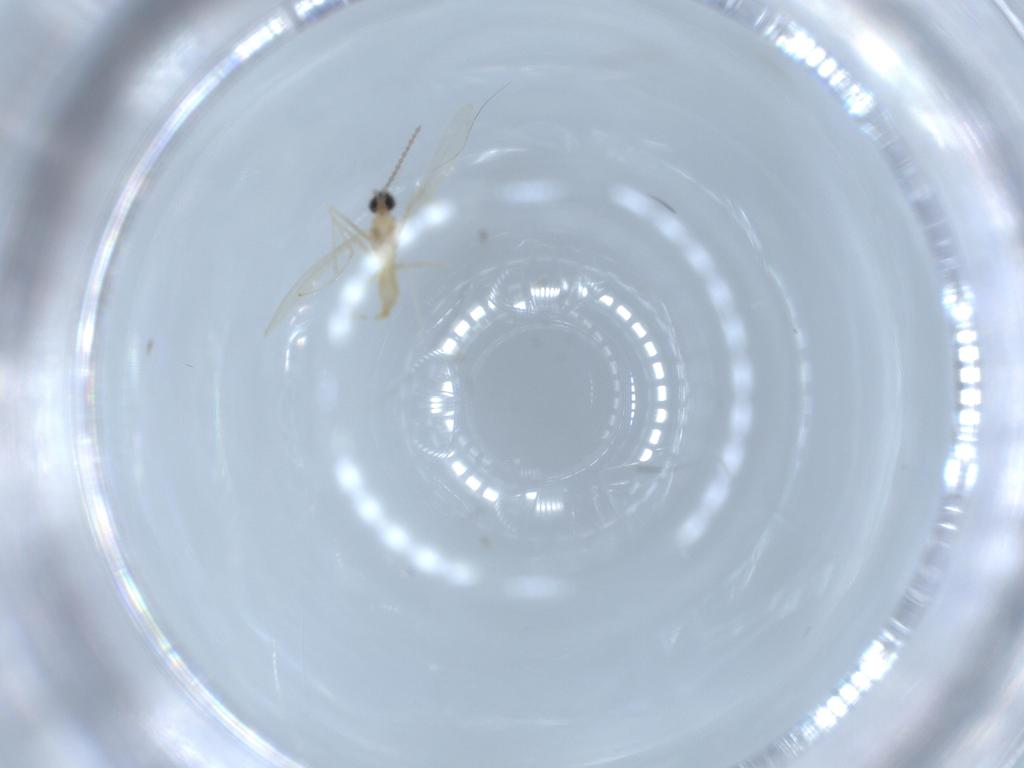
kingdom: Animalia
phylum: Arthropoda
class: Insecta
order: Diptera
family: Cecidomyiidae
